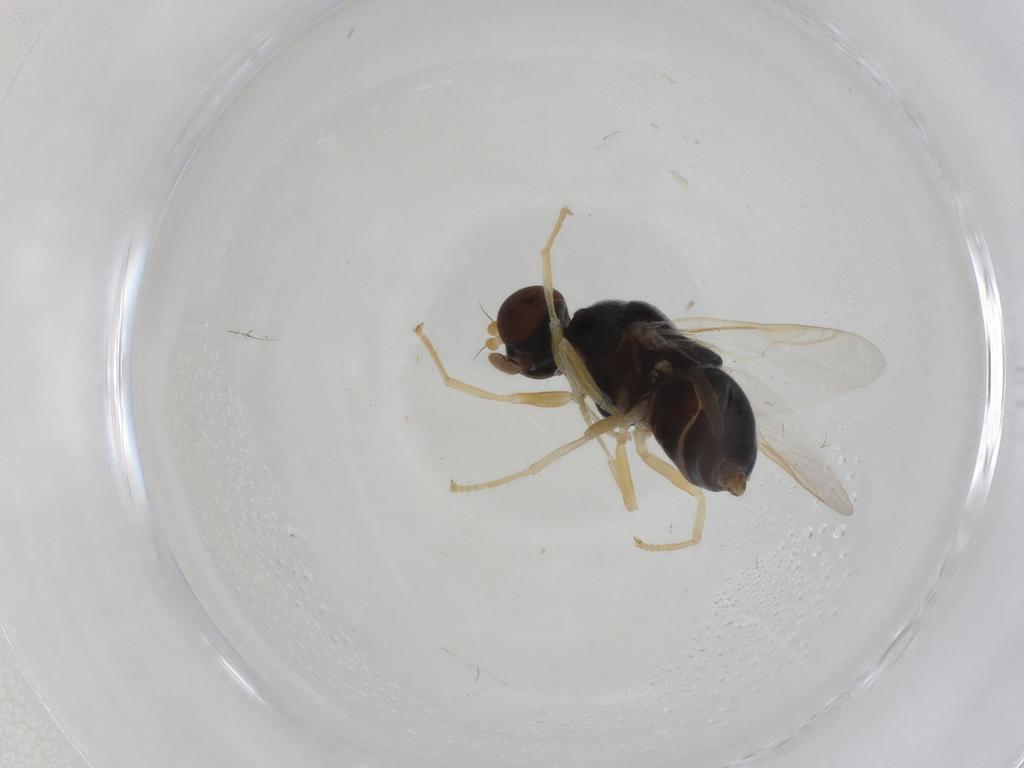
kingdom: Animalia
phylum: Arthropoda
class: Insecta
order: Diptera
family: Stratiomyidae
